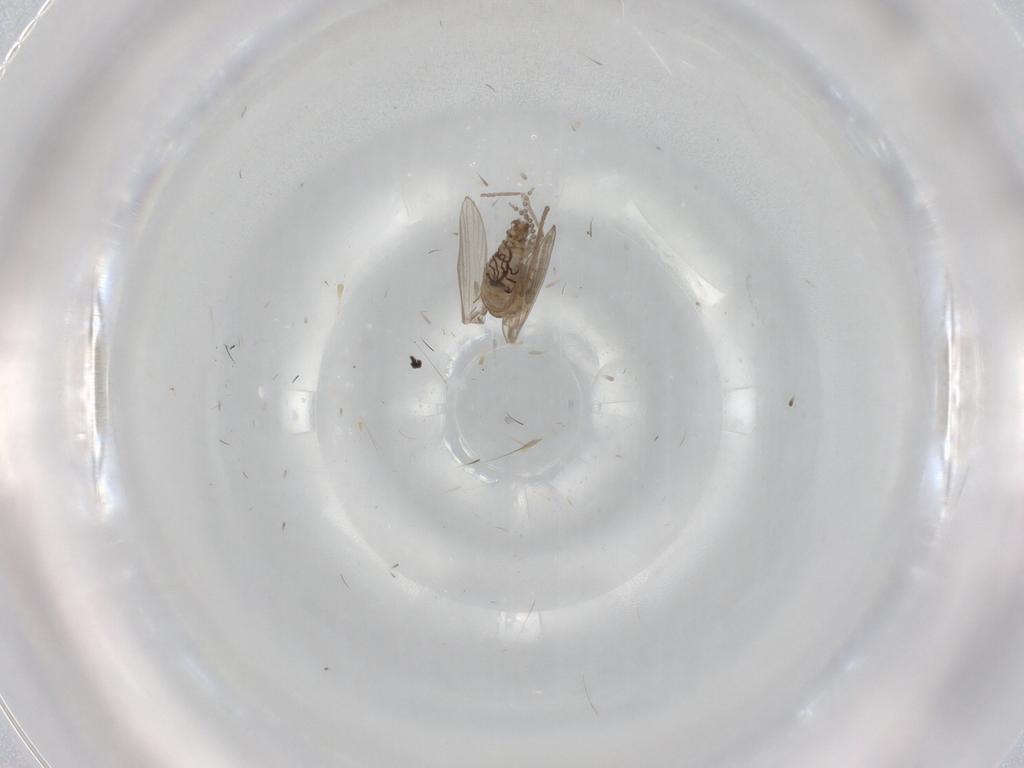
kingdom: Animalia
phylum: Arthropoda
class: Insecta
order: Diptera
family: Psychodidae
